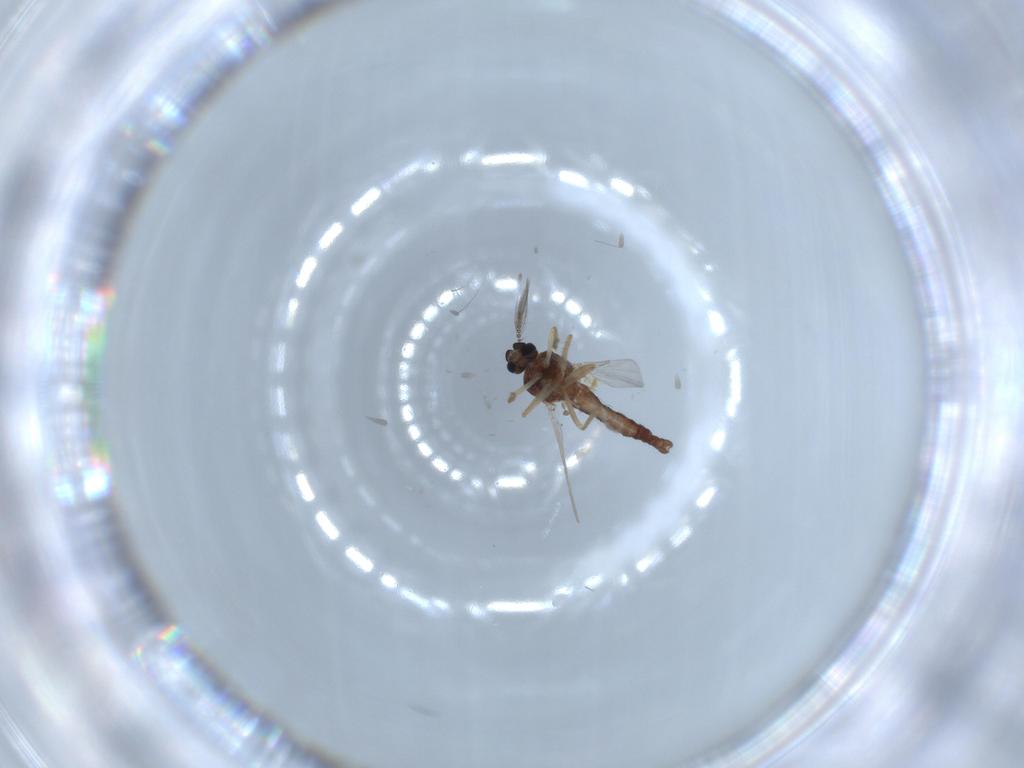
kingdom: Animalia
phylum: Arthropoda
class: Insecta
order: Diptera
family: Ceratopogonidae
